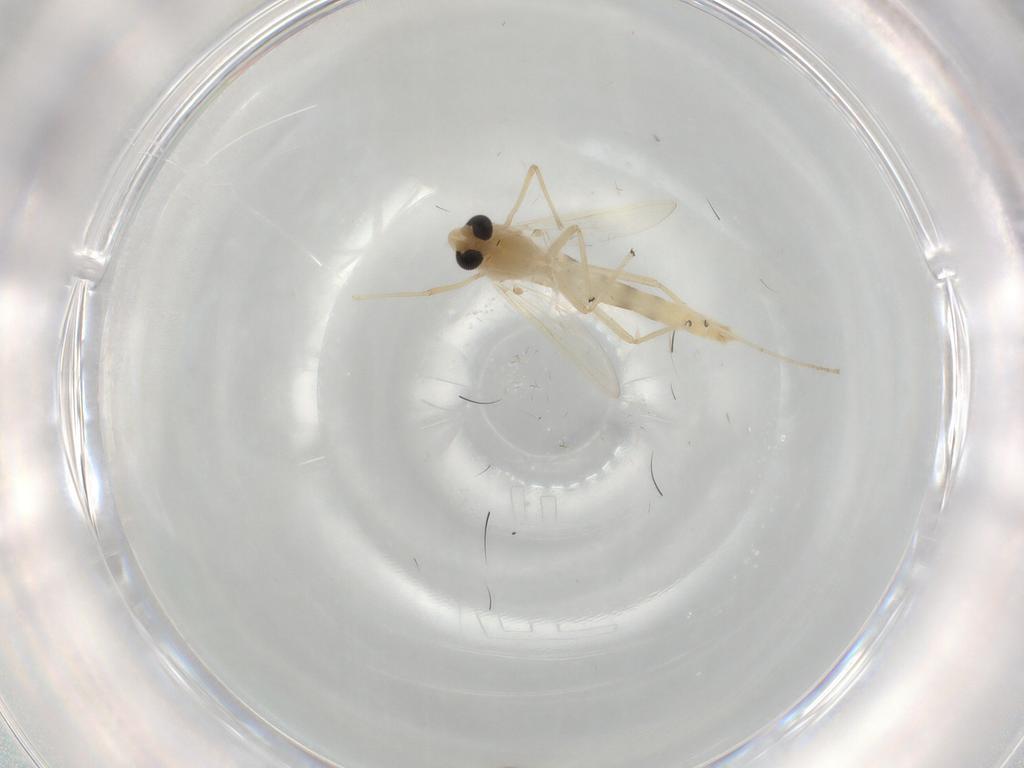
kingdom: Animalia
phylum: Arthropoda
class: Insecta
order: Diptera
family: Ceratopogonidae
